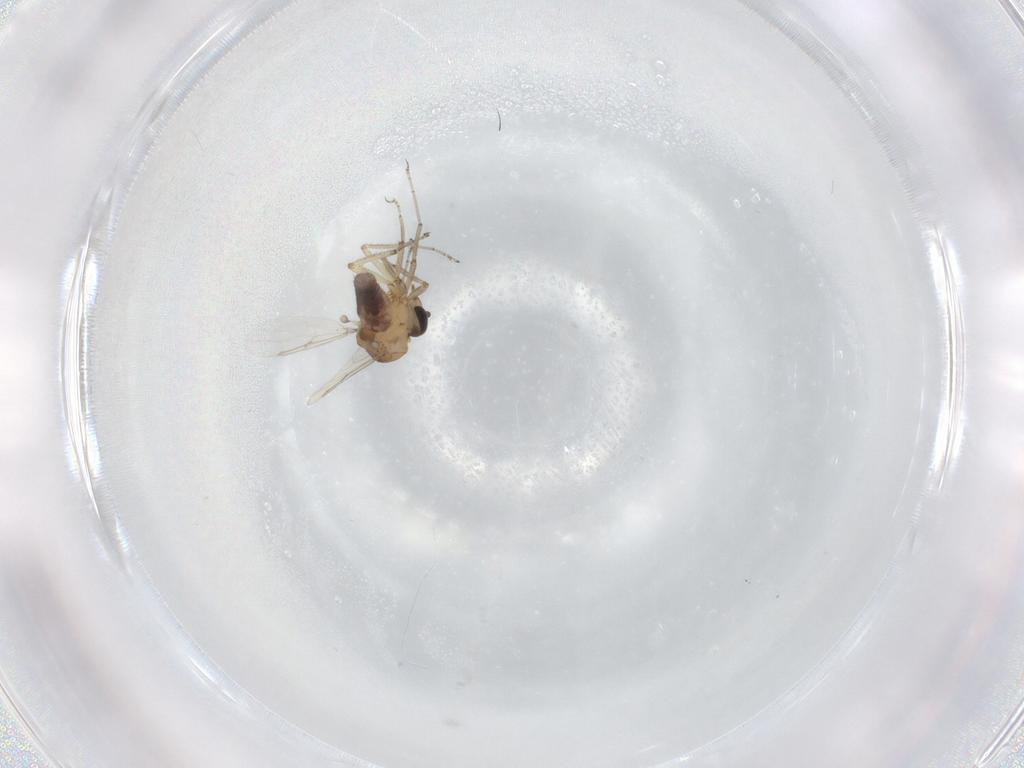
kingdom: Animalia
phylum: Arthropoda
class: Insecta
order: Diptera
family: Ceratopogonidae
